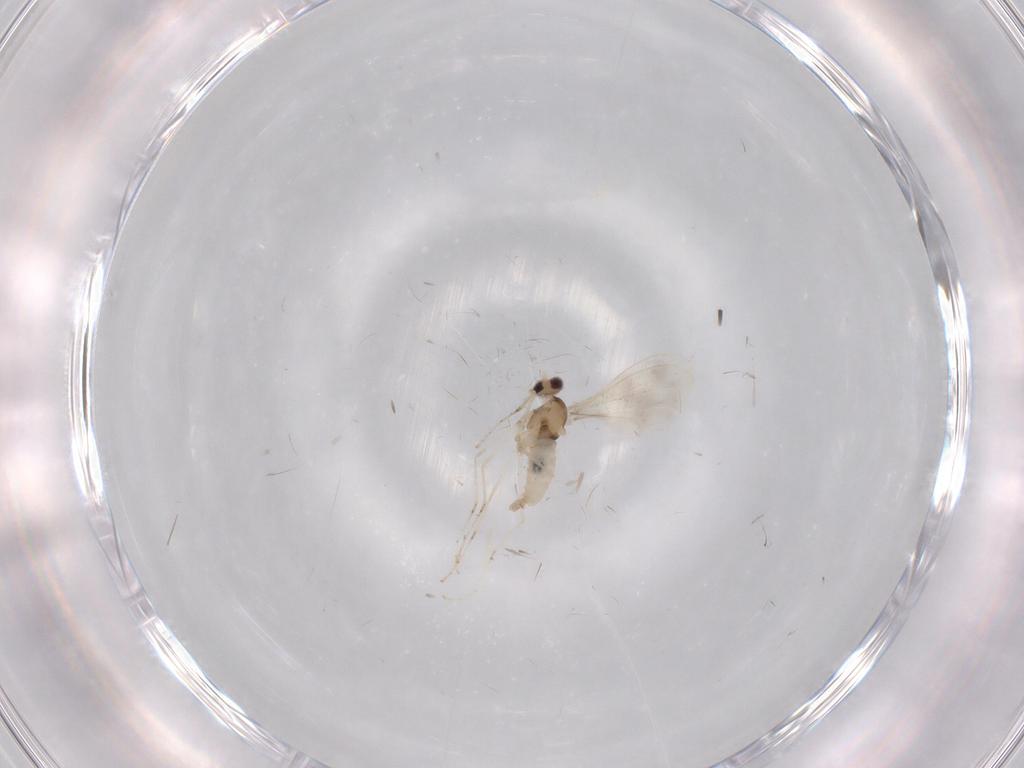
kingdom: Animalia
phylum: Arthropoda
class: Insecta
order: Diptera
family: Cecidomyiidae
